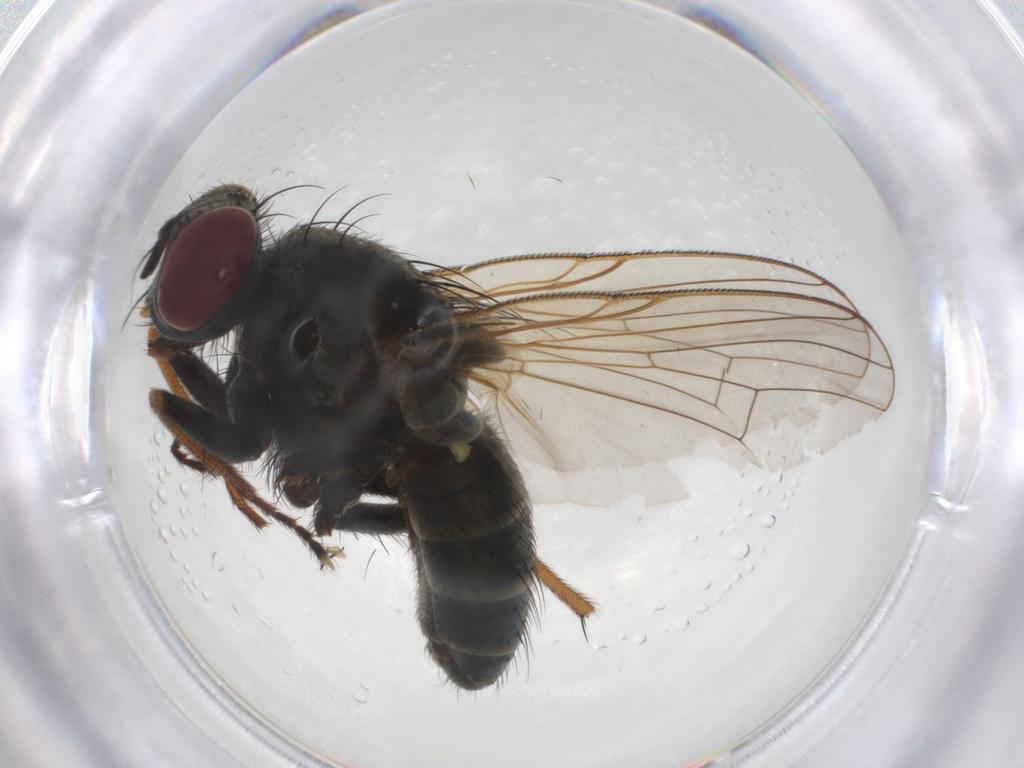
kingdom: Animalia
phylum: Arthropoda
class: Insecta
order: Diptera
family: Muscidae
